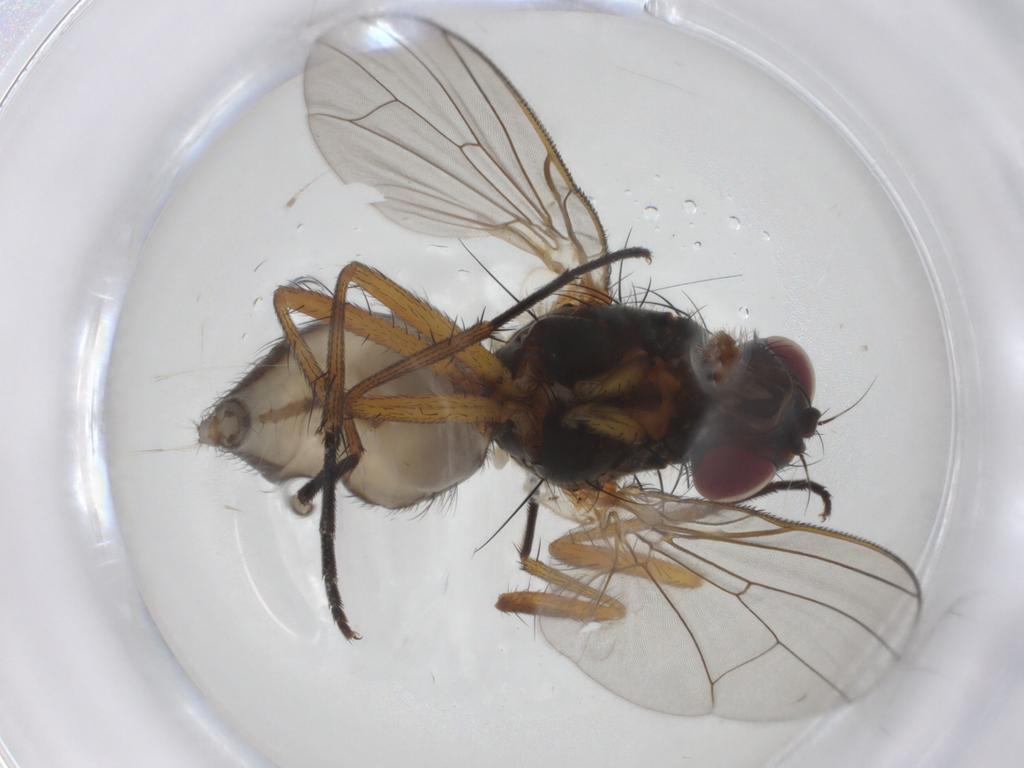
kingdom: Animalia
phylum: Arthropoda
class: Insecta
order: Diptera
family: Anthomyiidae
